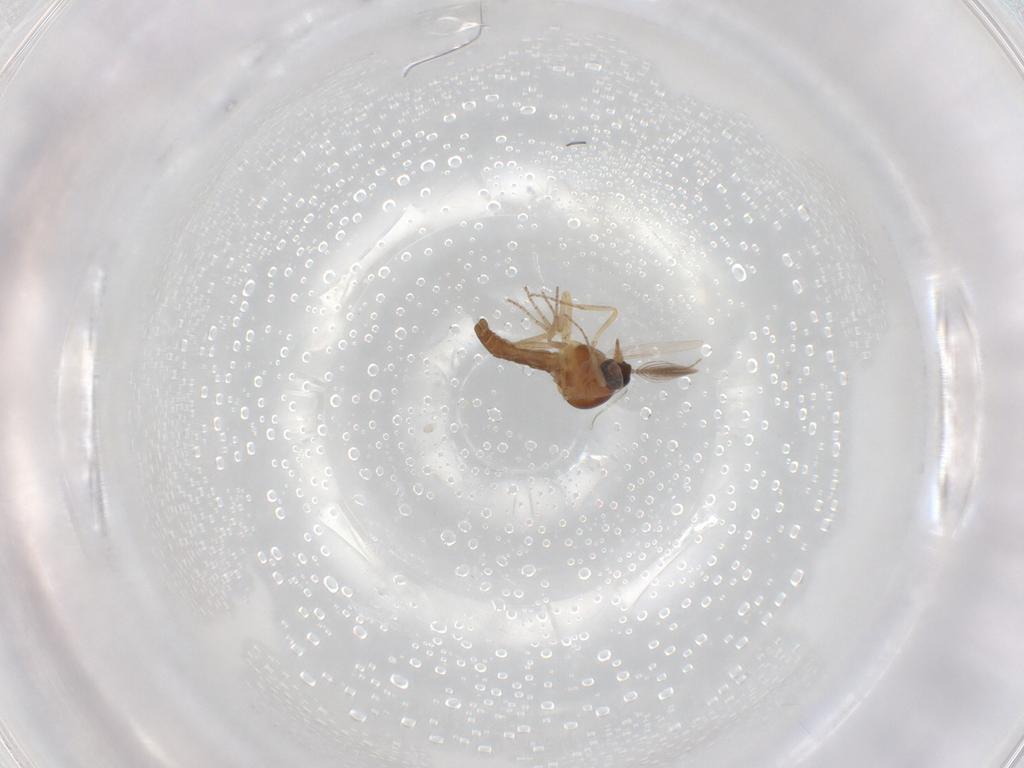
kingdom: Animalia
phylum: Arthropoda
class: Insecta
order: Diptera
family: Ceratopogonidae
